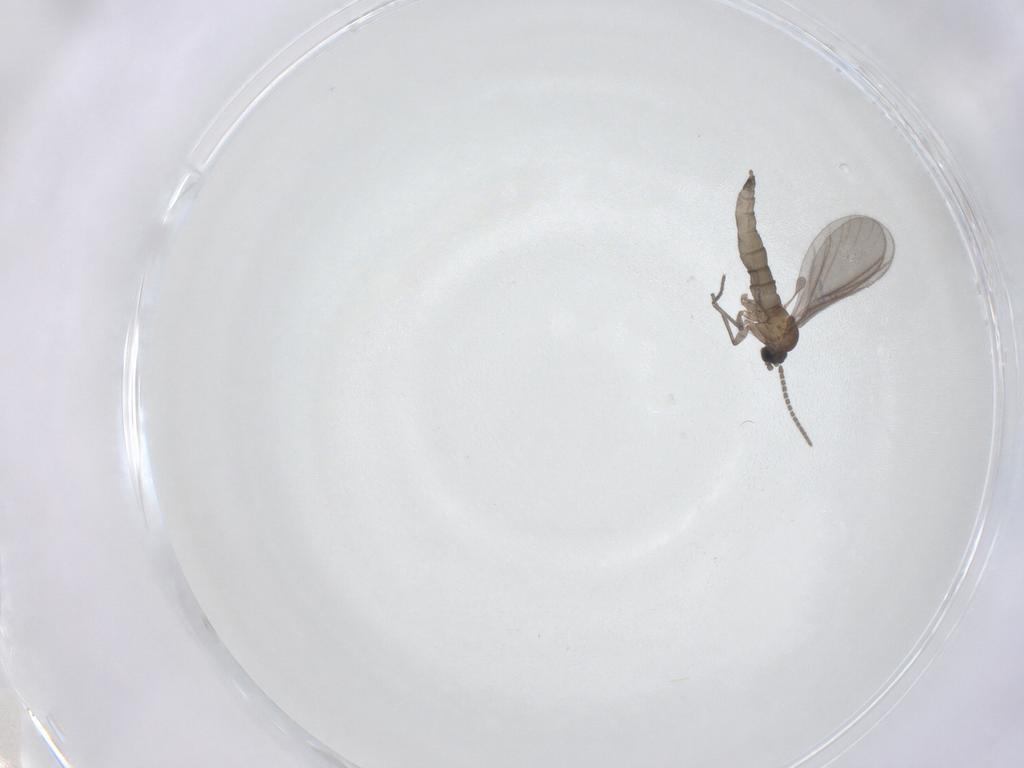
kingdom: Animalia
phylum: Arthropoda
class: Insecta
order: Diptera
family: Sciaridae
